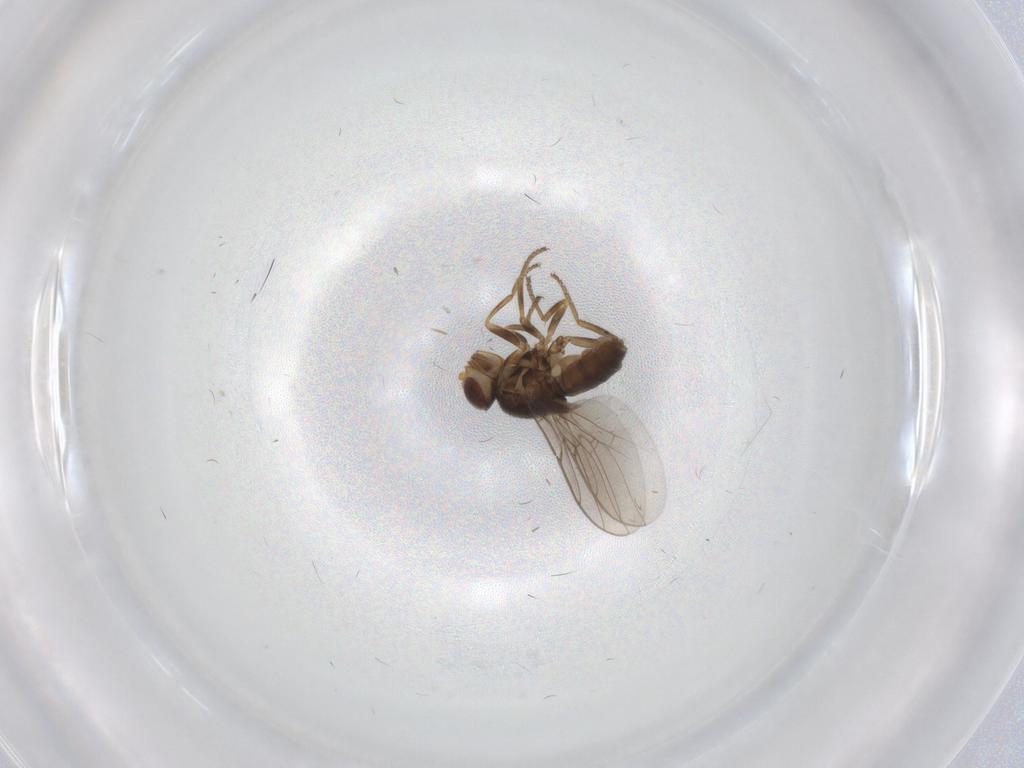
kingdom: Animalia
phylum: Arthropoda
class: Insecta
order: Diptera
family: Chloropidae
